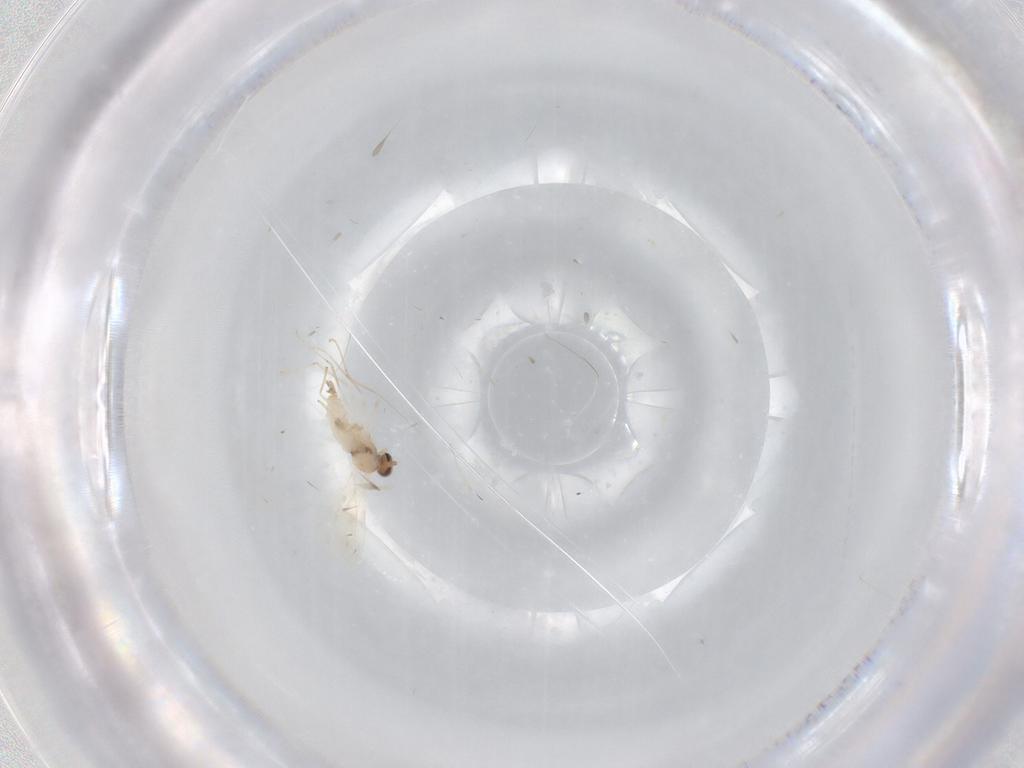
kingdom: Animalia
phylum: Arthropoda
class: Insecta
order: Diptera
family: Cecidomyiidae
